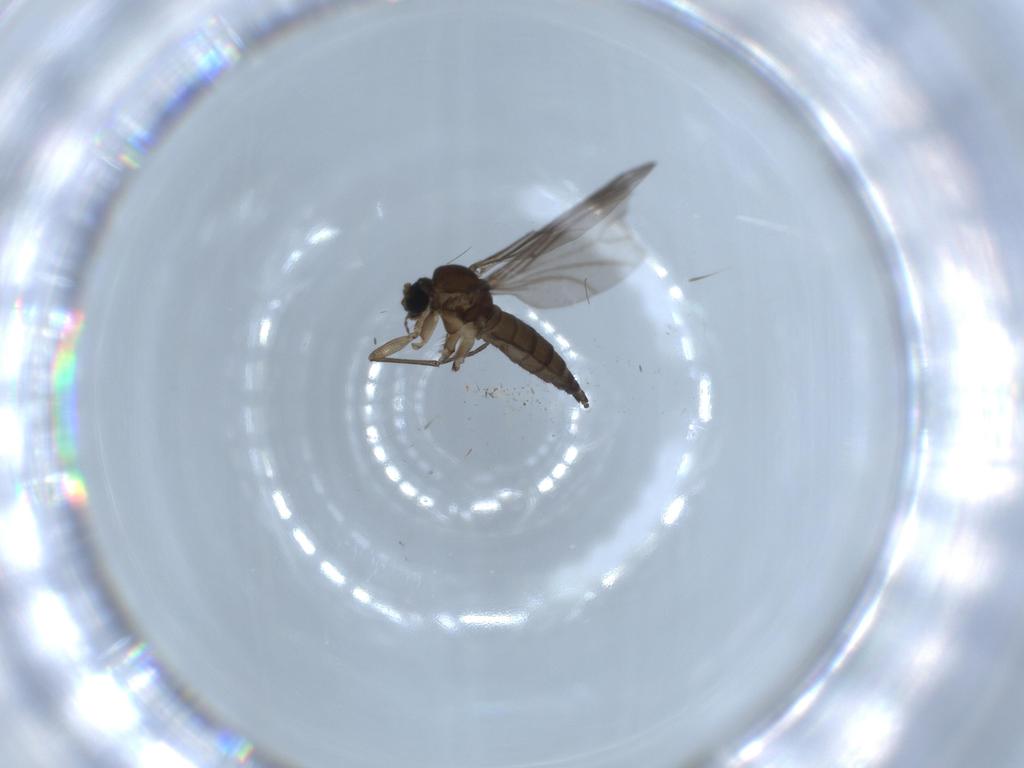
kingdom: Animalia
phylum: Arthropoda
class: Insecta
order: Diptera
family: Sciaridae
